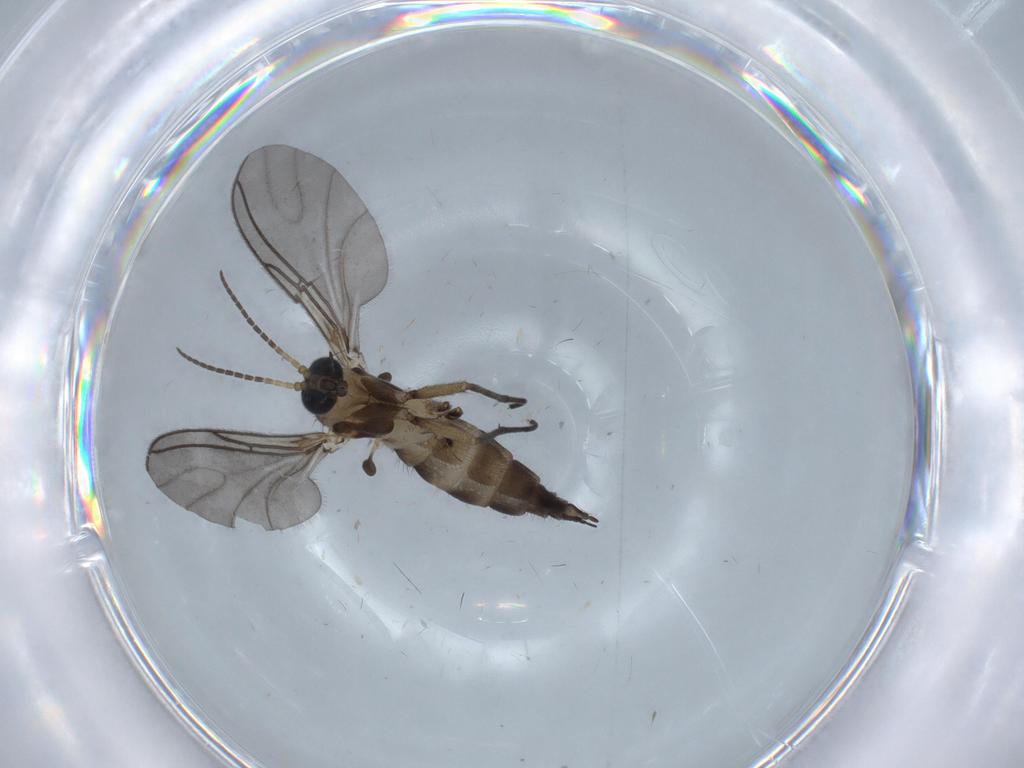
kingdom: Animalia
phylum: Arthropoda
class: Insecta
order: Diptera
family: Sciaridae
